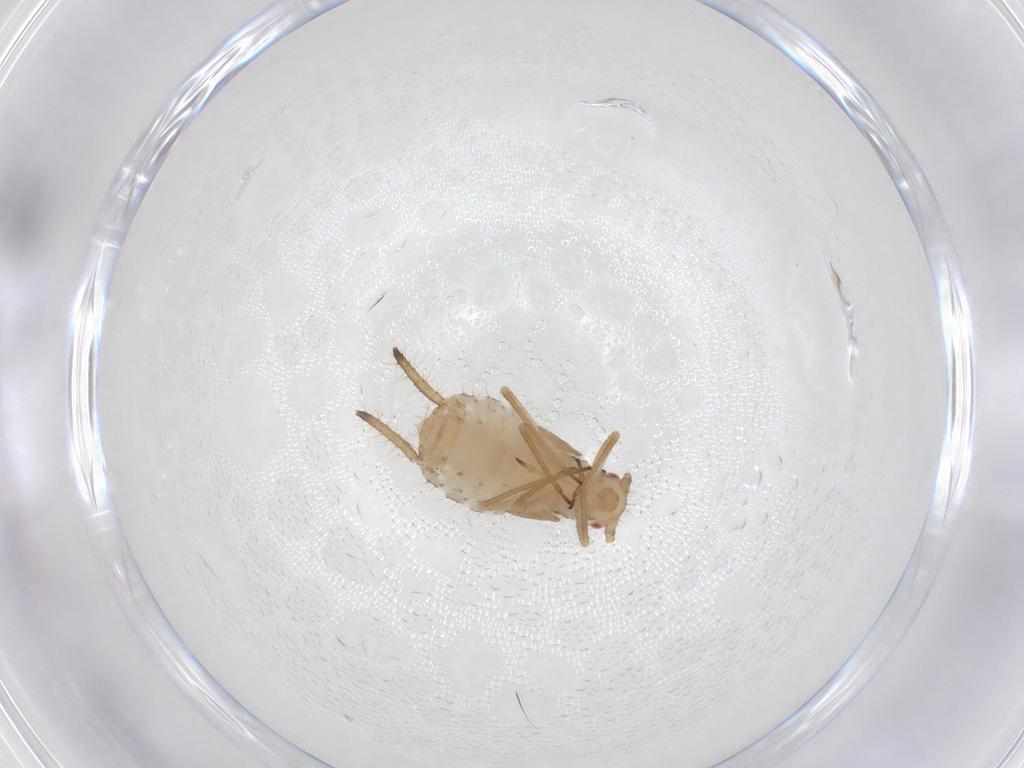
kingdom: Animalia
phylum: Arthropoda
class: Insecta
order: Hemiptera
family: Aphididae
